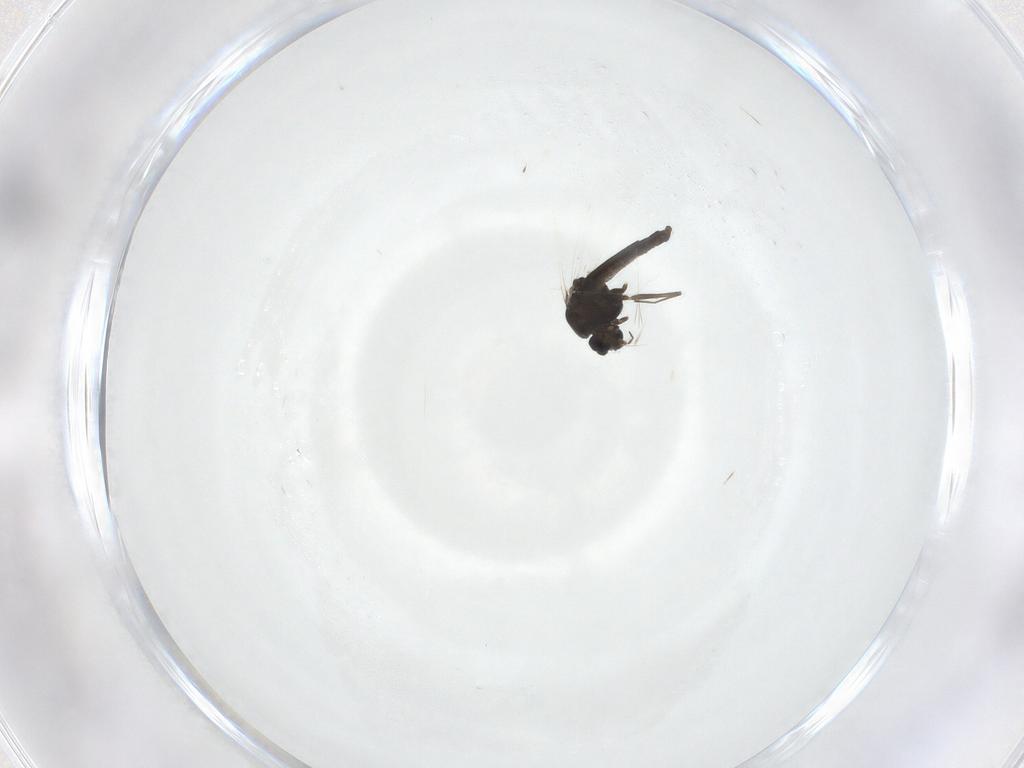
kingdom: Animalia
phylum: Arthropoda
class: Insecta
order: Diptera
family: Chironomidae
